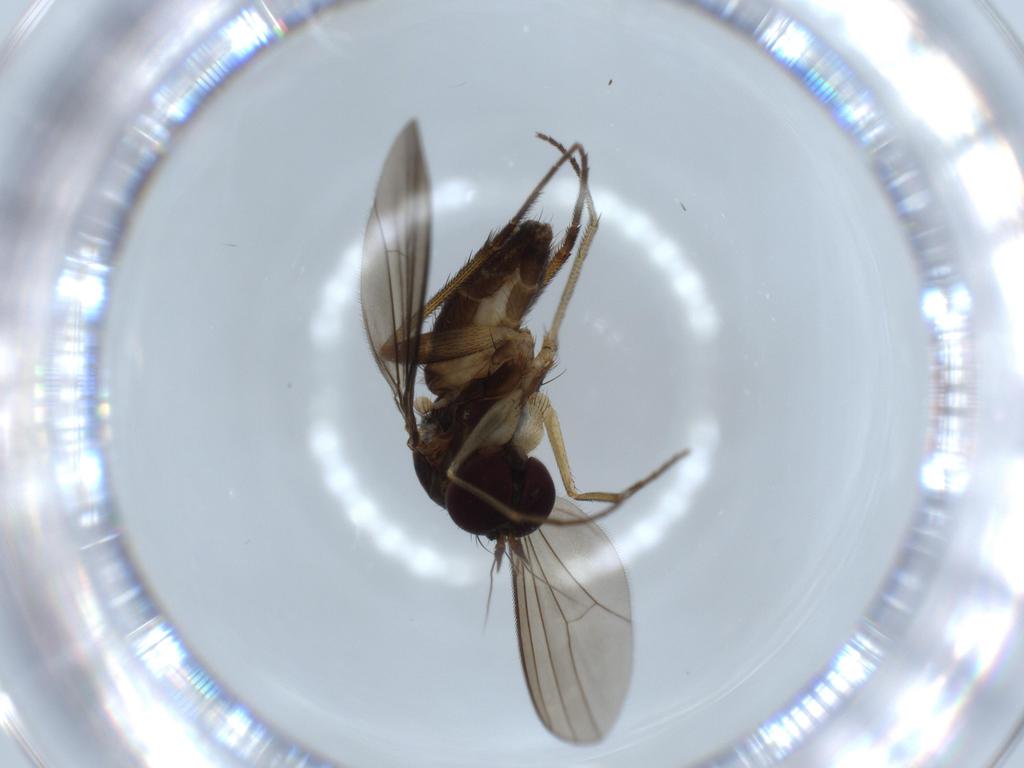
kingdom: Animalia
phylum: Arthropoda
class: Insecta
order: Diptera
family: Dolichopodidae
